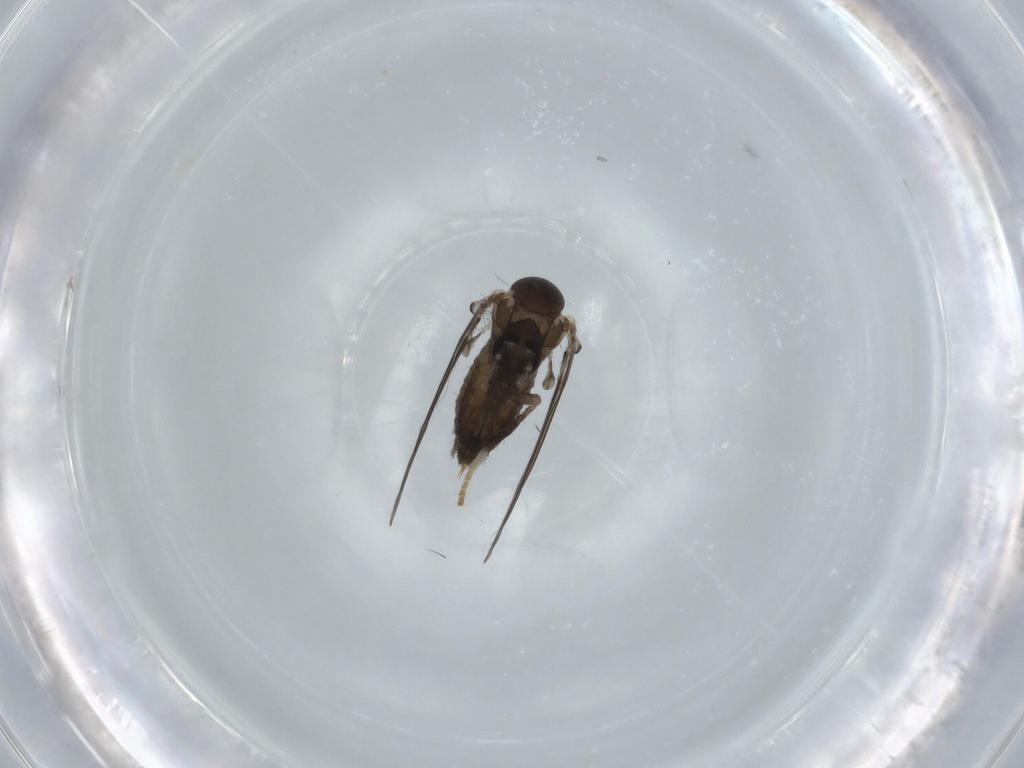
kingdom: Animalia
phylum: Arthropoda
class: Insecta
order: Diptera
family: Psychodidae
